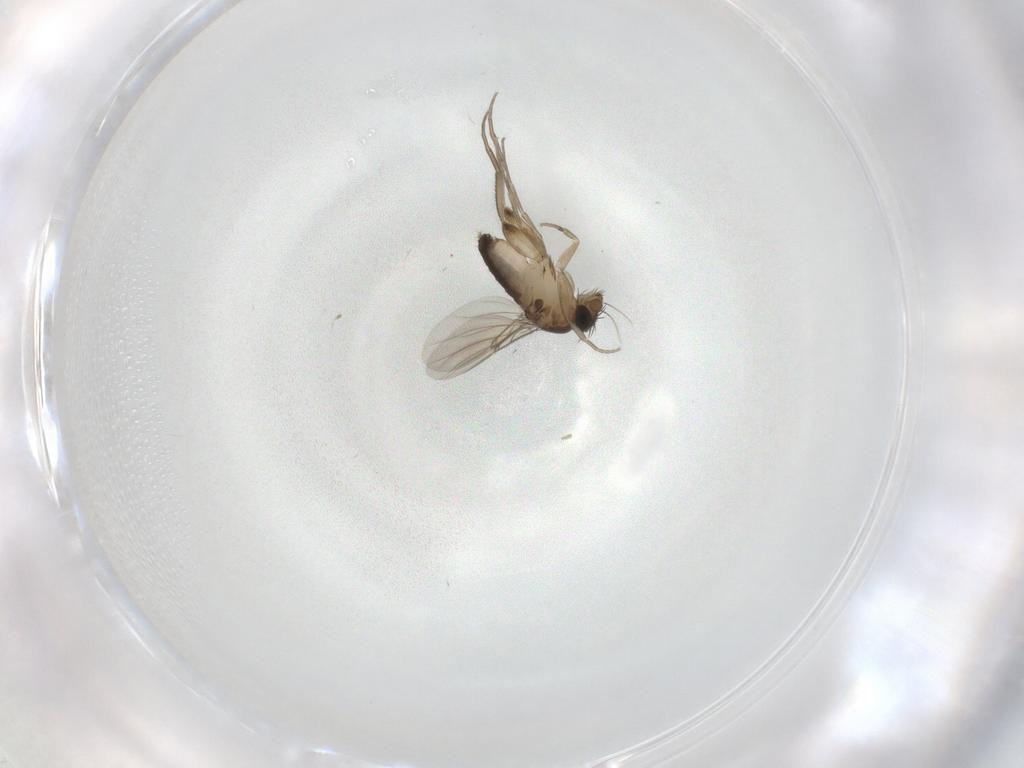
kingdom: Animalia
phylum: Arthropoda
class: Insecta
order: Diptera
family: Phoridae
